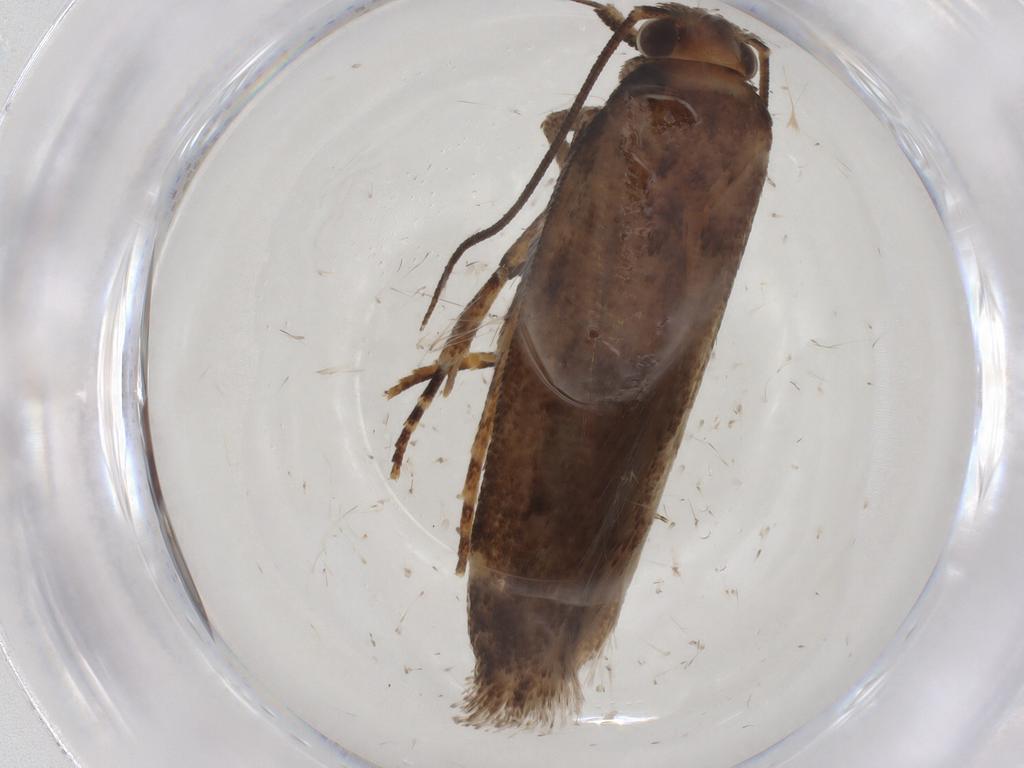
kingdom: Animalia
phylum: Arthropoda
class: Insecta
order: Lepidoptera
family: Gelechiidae
